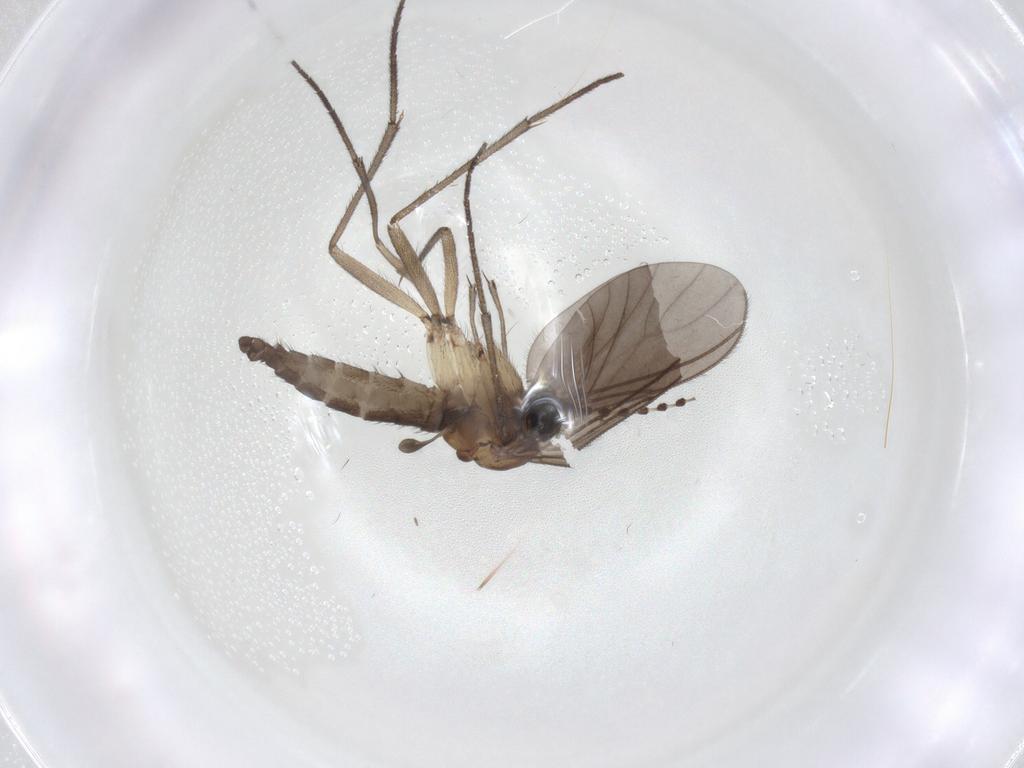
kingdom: Animalia
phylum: Arthropoda
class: Insecta
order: Diptera
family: Sciaridae
